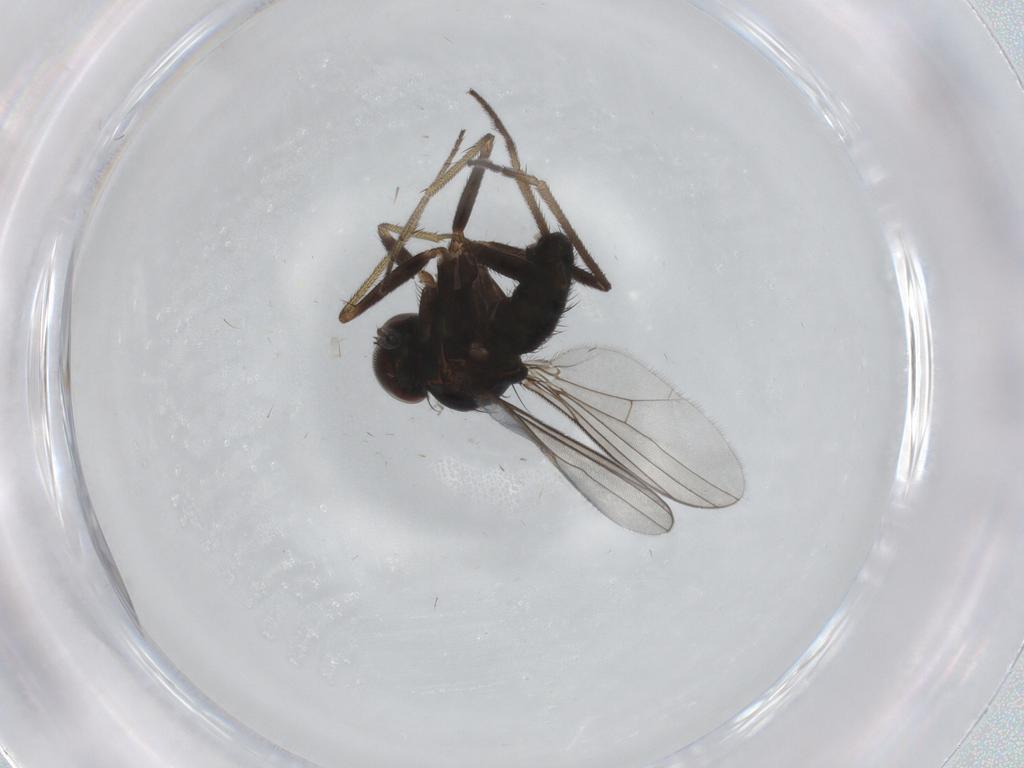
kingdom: Animalia
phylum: Arthropoda
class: Insecta
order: Diptera
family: Dolichopodidae
